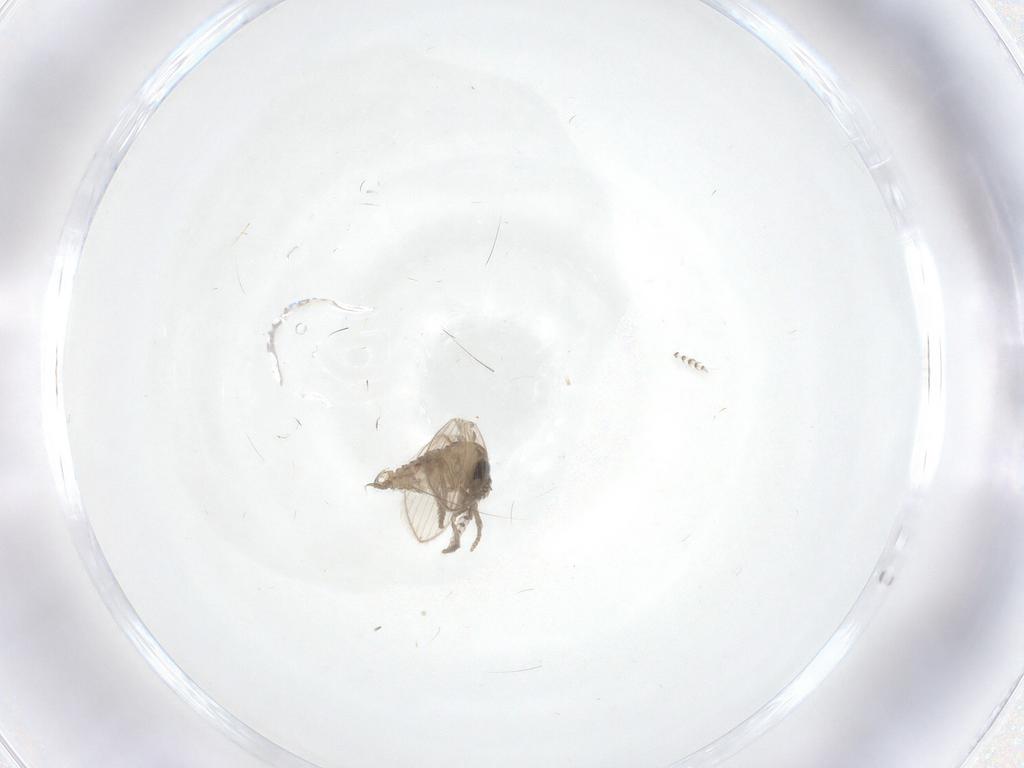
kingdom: Animalia
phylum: Arthropoda
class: Insecta
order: Diptera
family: Psychodidae
